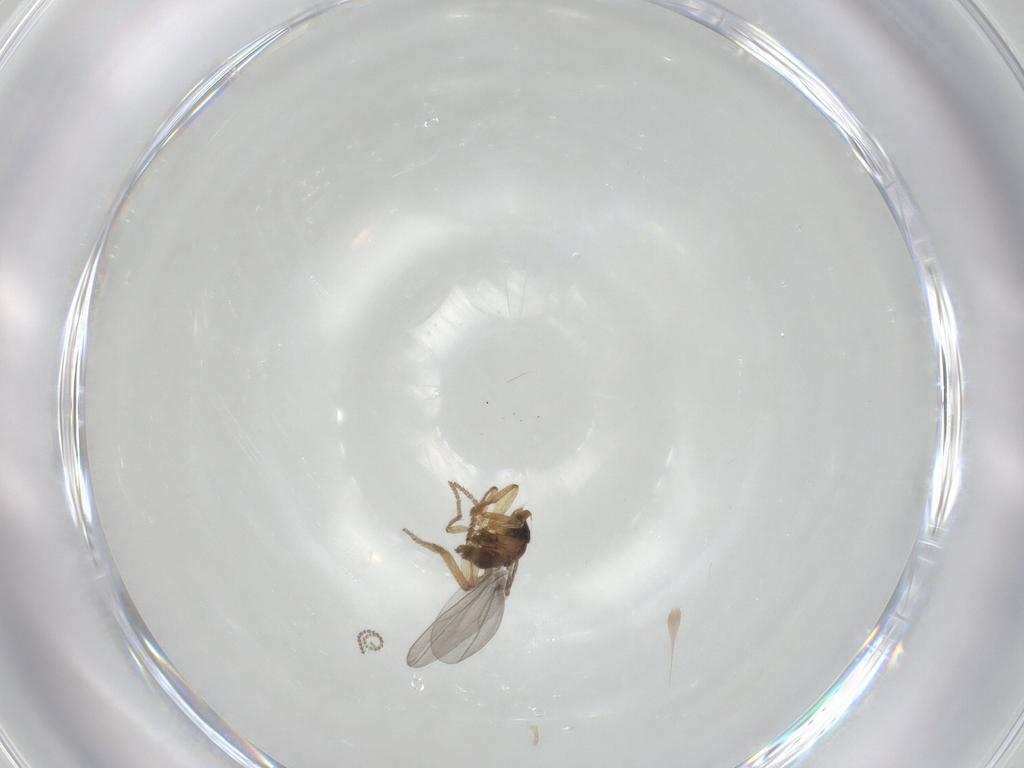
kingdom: Animalia
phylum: Arthropoda
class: Insecta
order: Diptera
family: Phoridae
